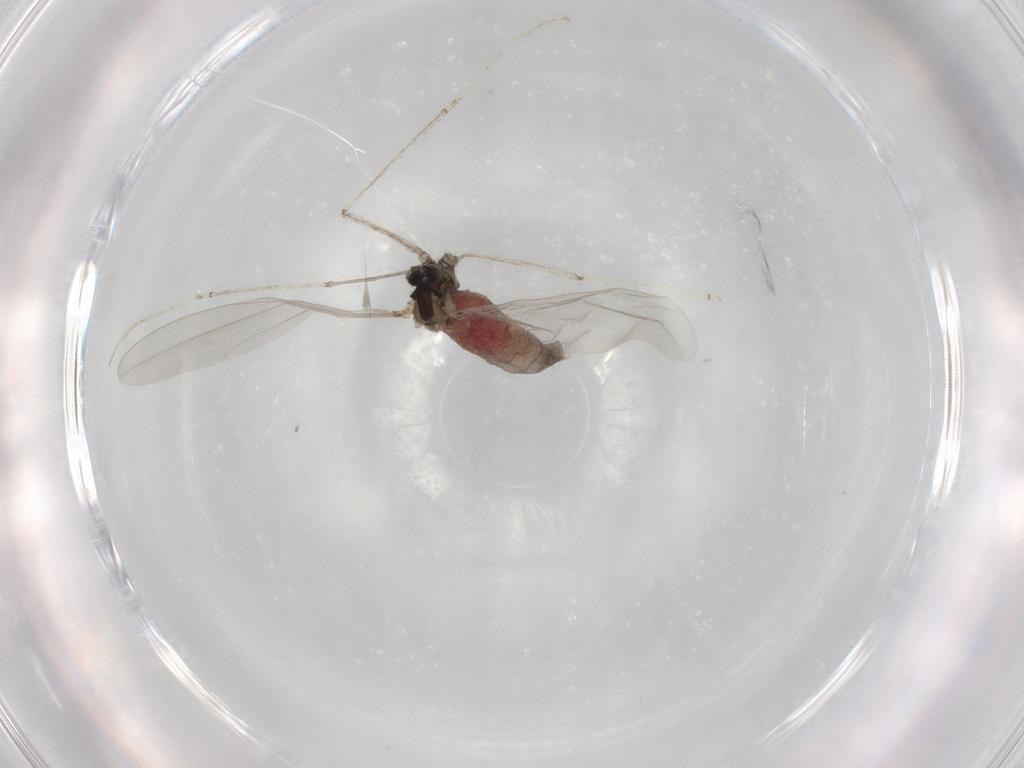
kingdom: Animalia
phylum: Arthropoda
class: Insecta
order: Diptera
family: Cecidomyiidae
